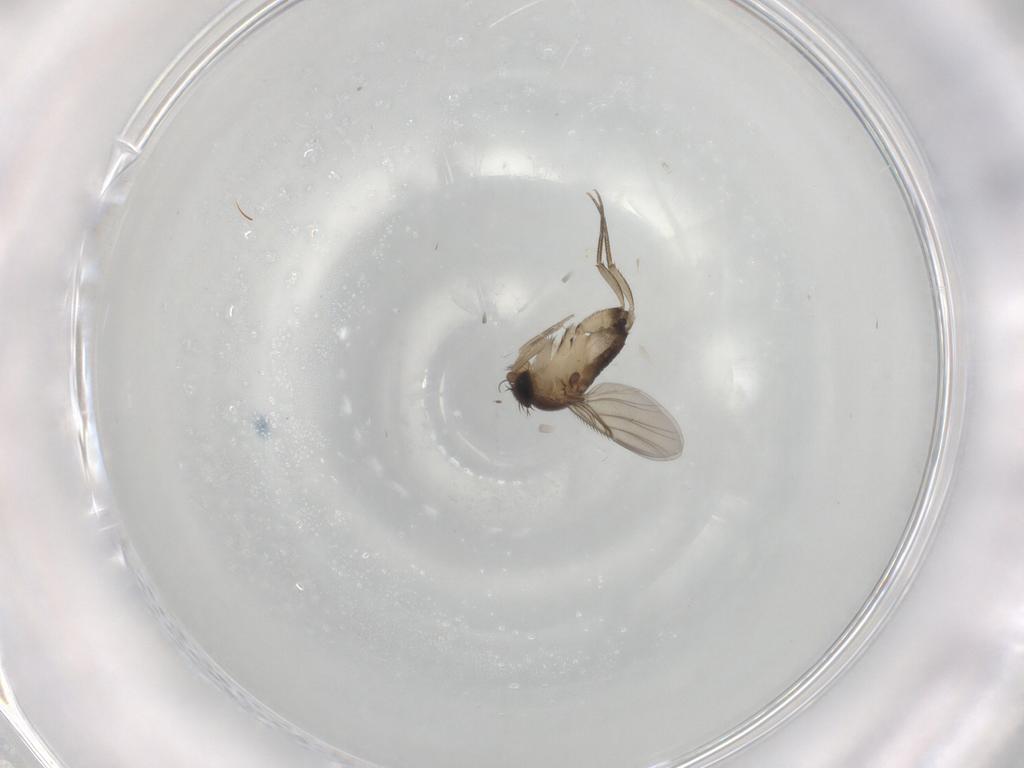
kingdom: Animalia
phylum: Arthropoda
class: Insecta
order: Diptera
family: Phoridae
